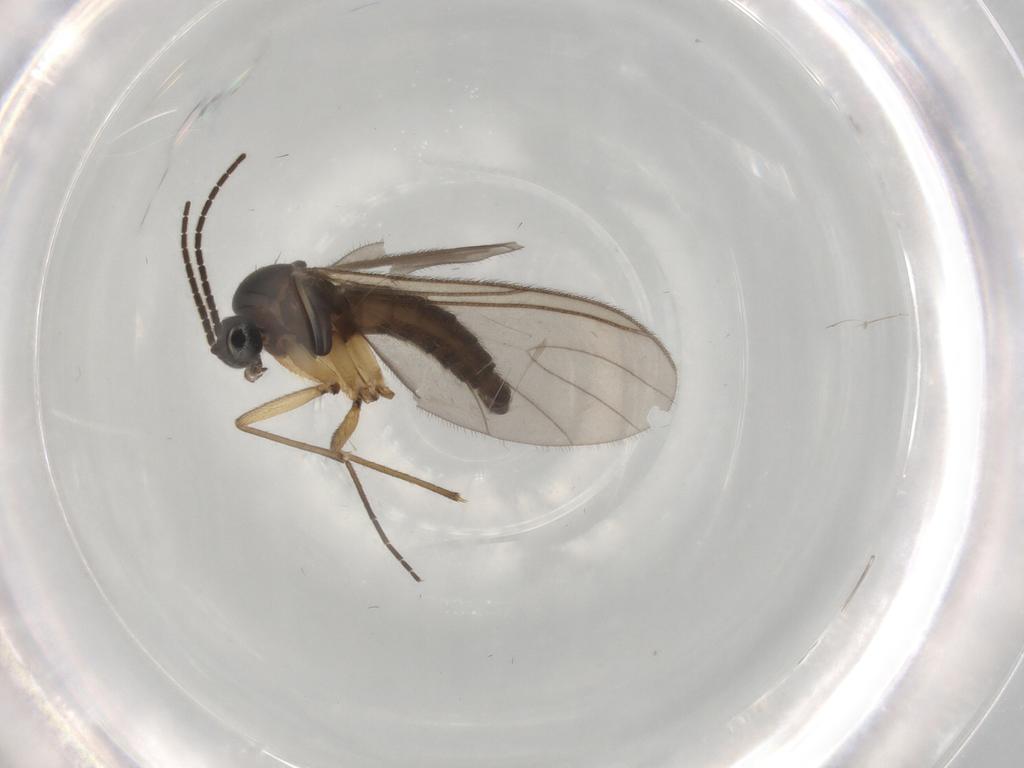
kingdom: Animalia
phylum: Arthropoda
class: Insecta
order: Diptera
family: Sciaridae
